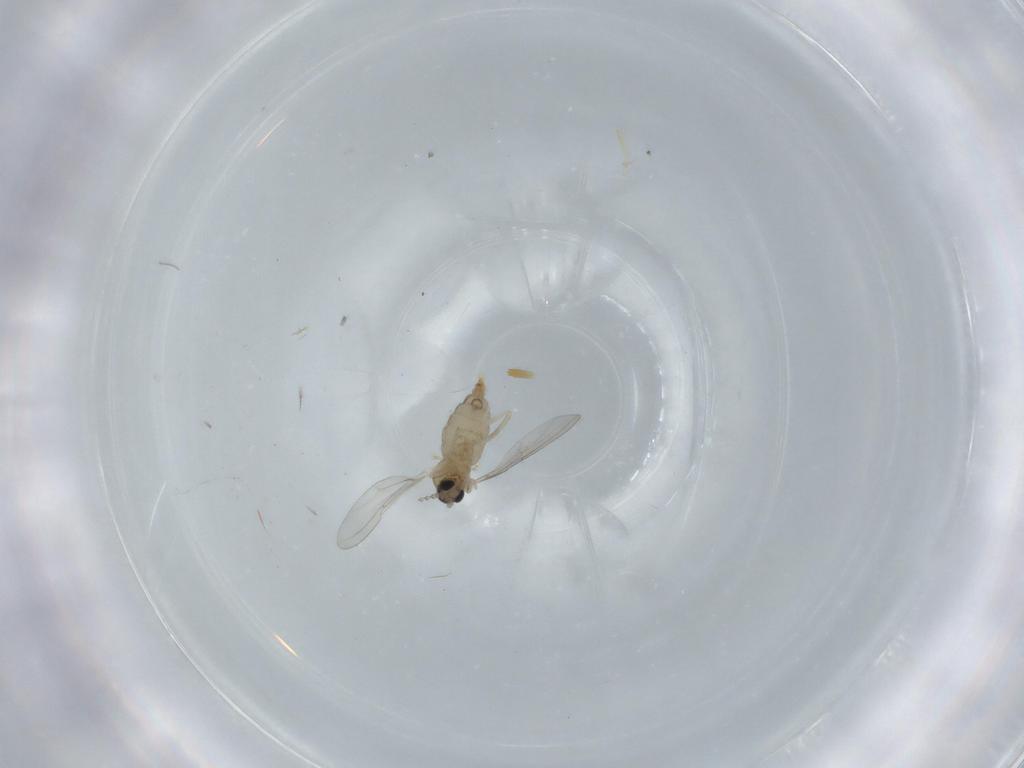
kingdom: Animalia
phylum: Arthropoda
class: Insecta
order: Diptera
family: Cecidomyiidae
